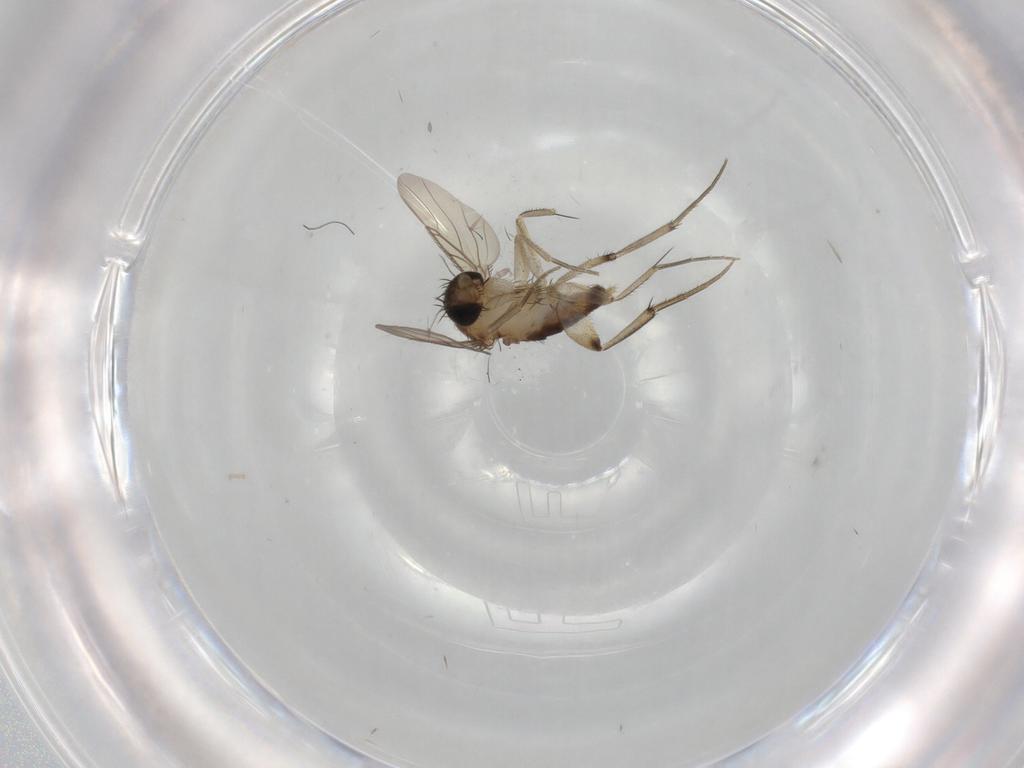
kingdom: Animalia
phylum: Arthropoda
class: Insecta
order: Diptera
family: Phoridae
